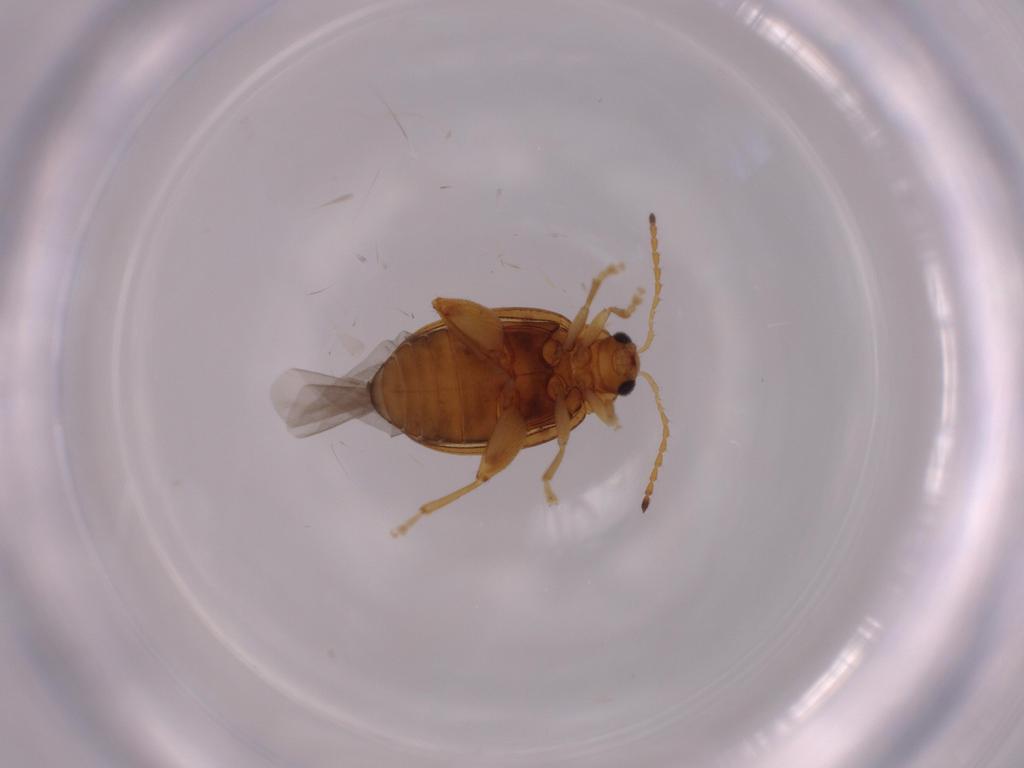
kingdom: Animalia
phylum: Arthropoda
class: Insecta
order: Coleoptera
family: Chrysomelidae
